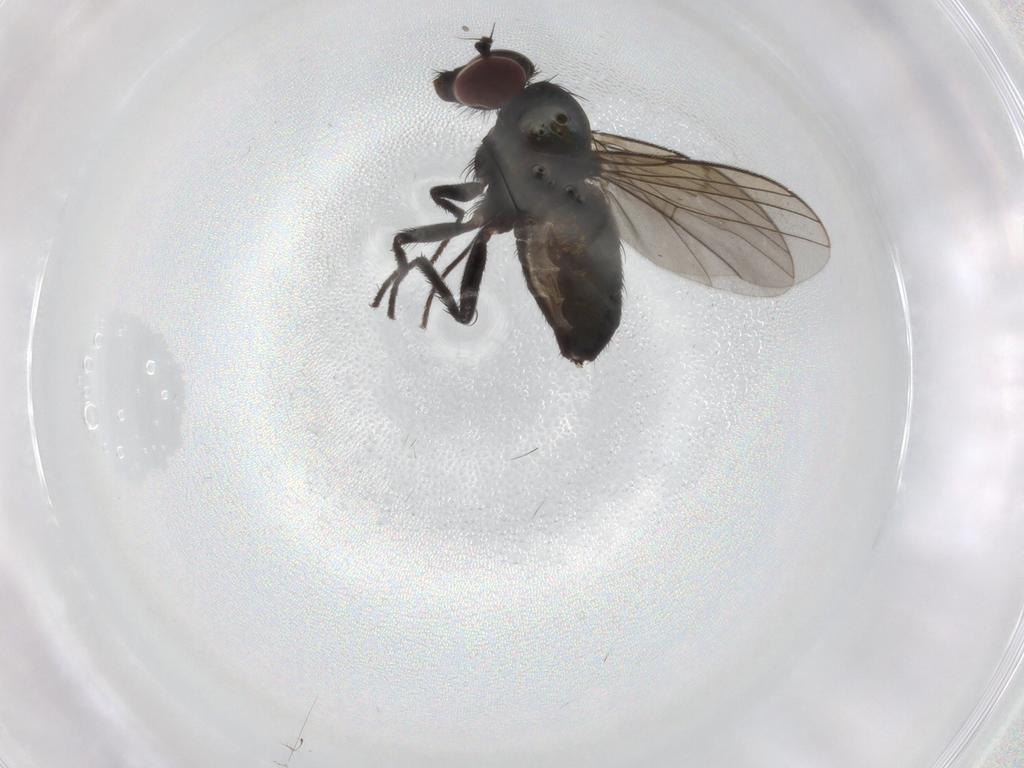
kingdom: Animalia
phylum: Arthropoda
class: Insecta
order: Diptera
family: Dolichopodidae
